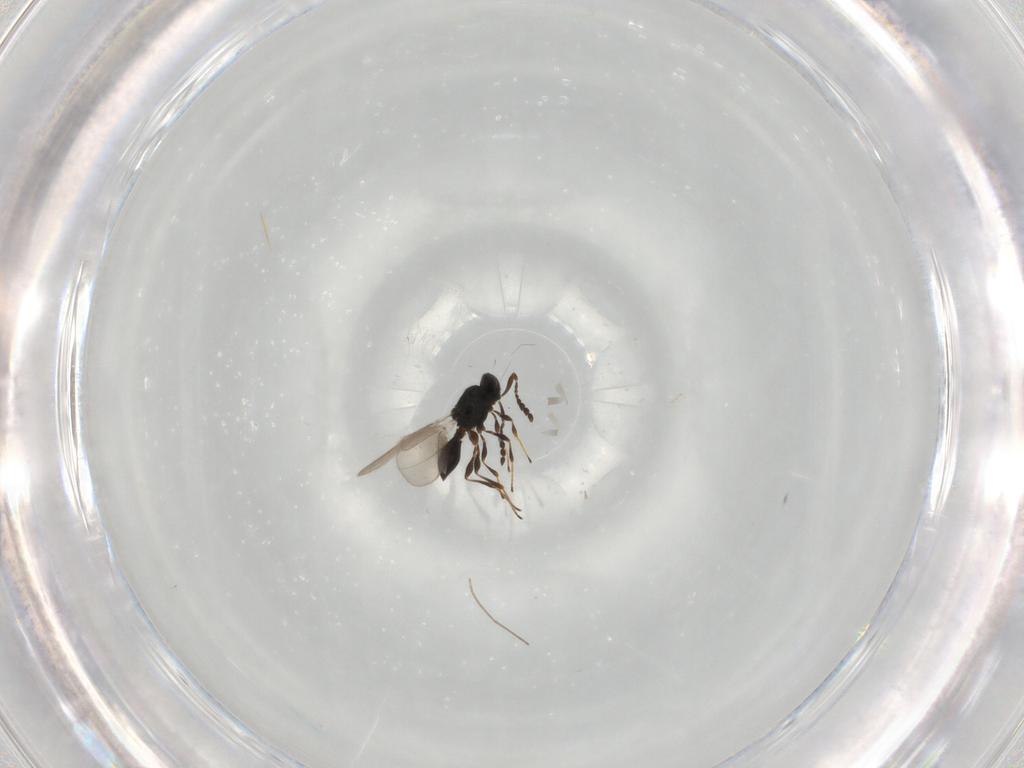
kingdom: Animalia
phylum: Arthropoda
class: Insecta
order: Hymenoptera
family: Platygastridae
